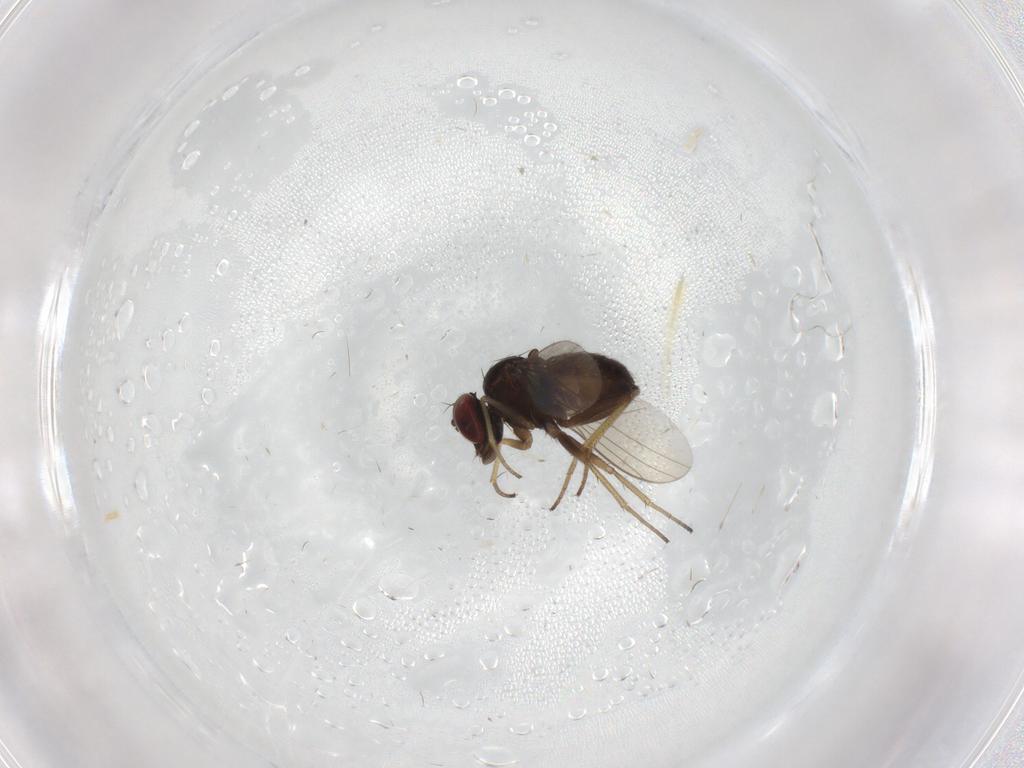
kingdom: Animalia
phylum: Arthropoda
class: Insecta
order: Diptera
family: Dolichopodidae
